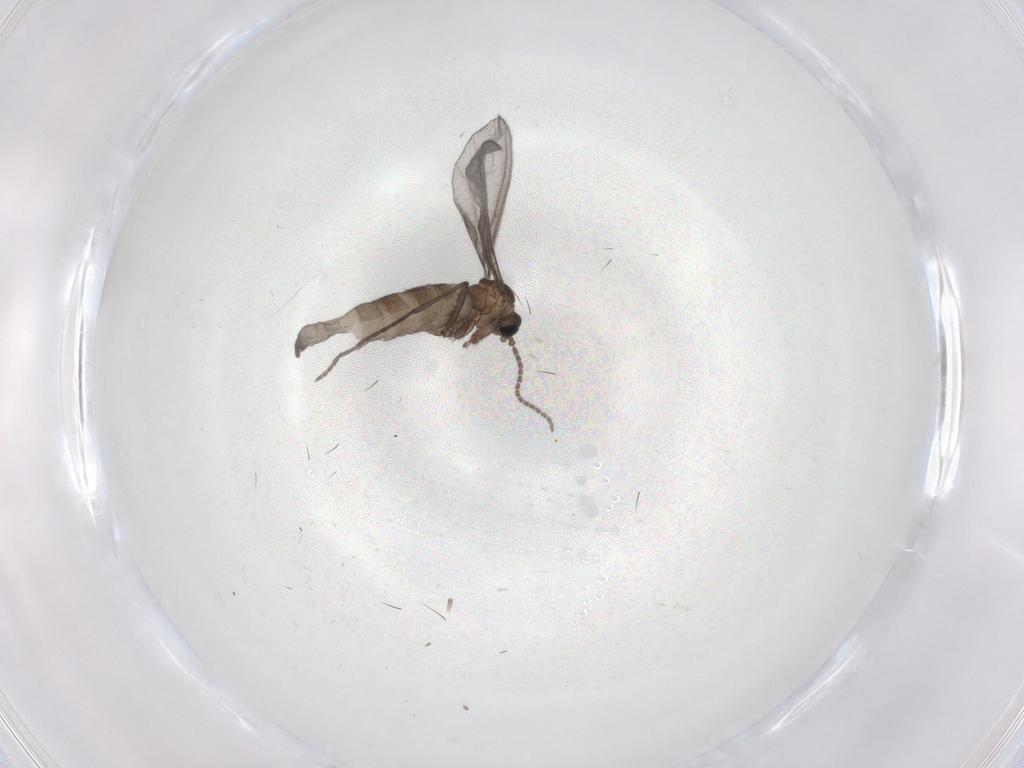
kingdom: Animalia
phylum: Arthropoda
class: Insecta
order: Diptera
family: Sciaridae
